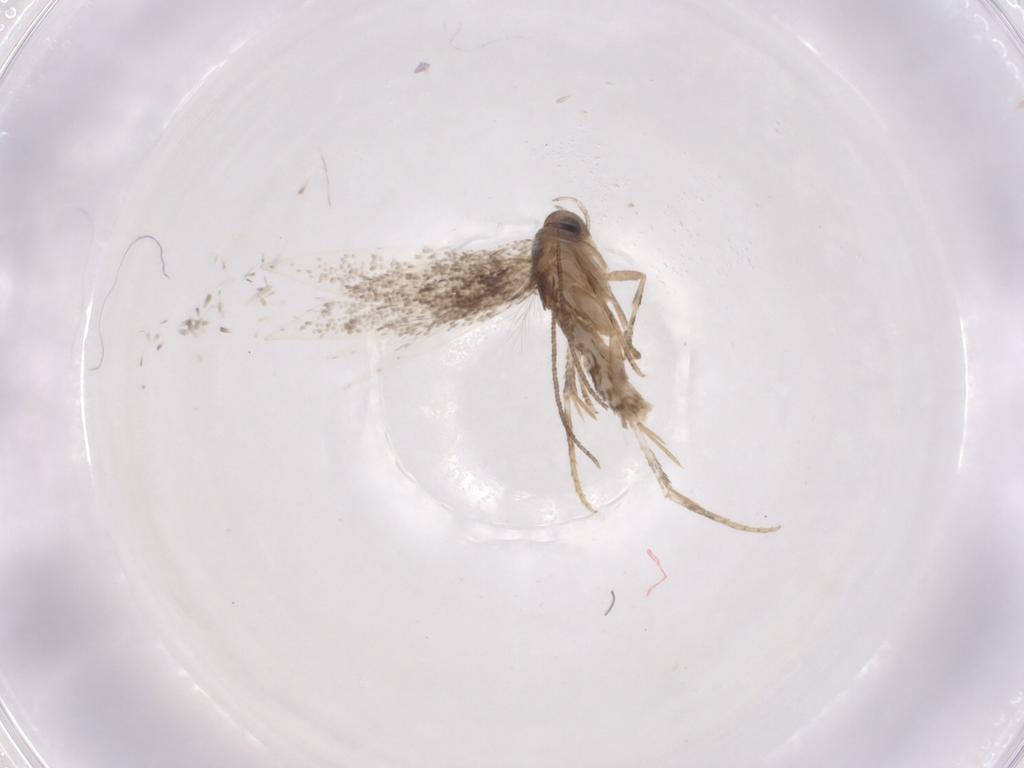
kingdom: Animalia
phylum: Arthropoda
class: Insecta
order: Lepidoptera
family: Elachistidae
